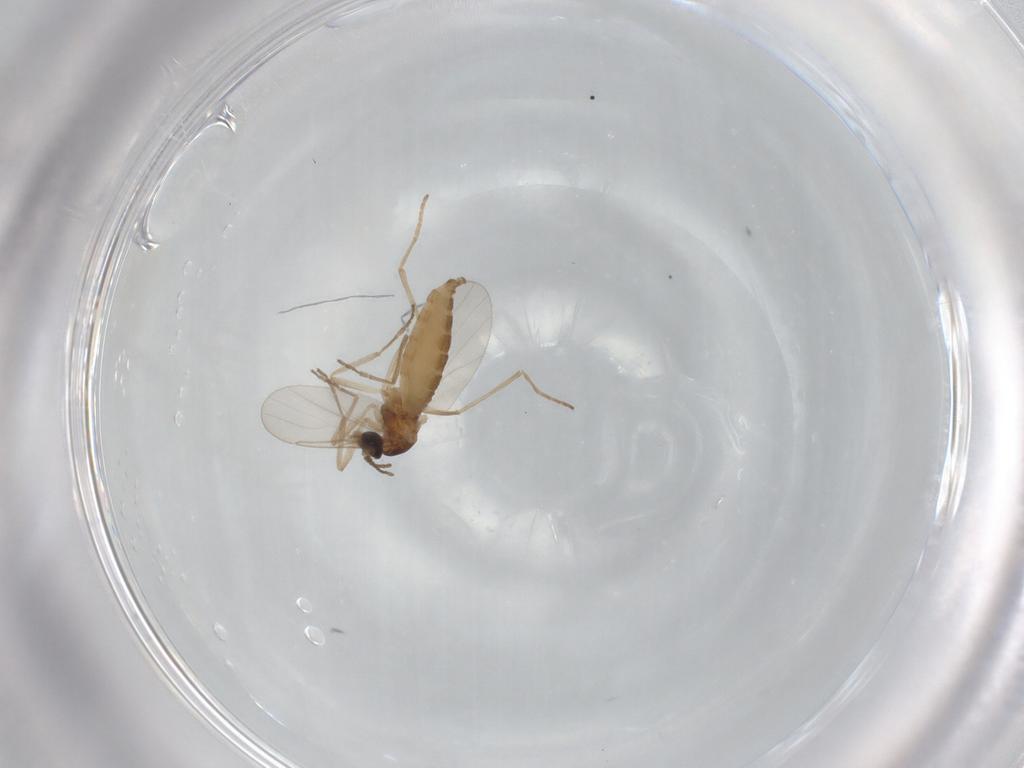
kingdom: Animalia
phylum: Arthropoda
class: Insecta
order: Diptera
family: Cecidomyiidae
